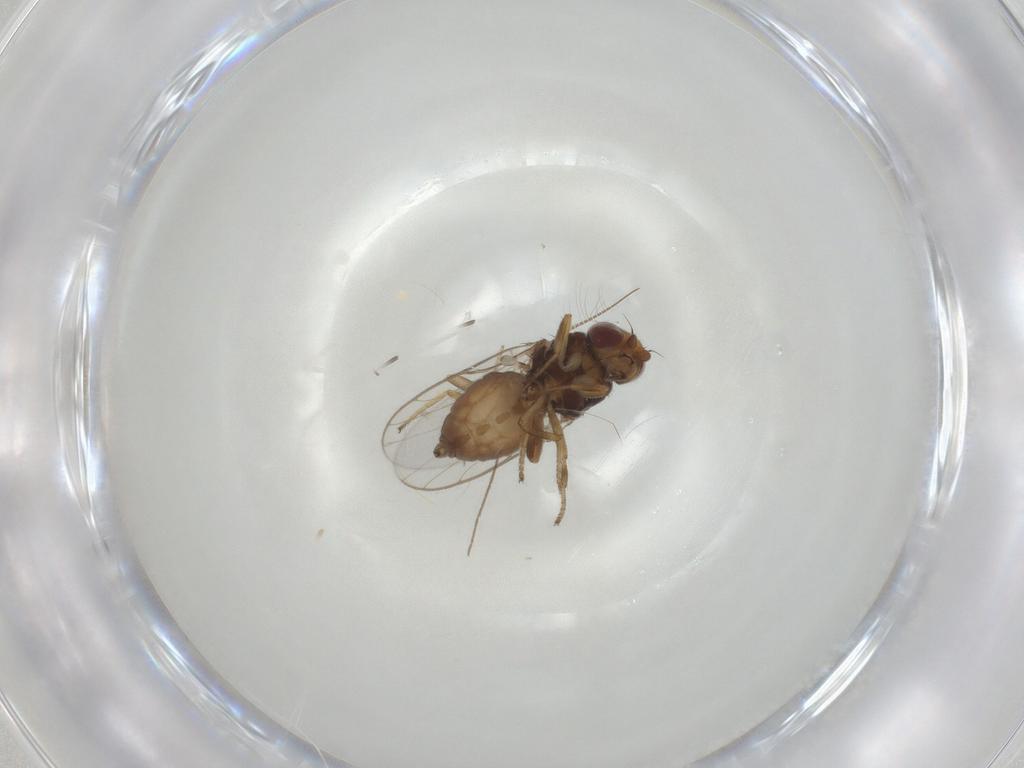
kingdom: Animalia
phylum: Arthropoda
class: Insecta
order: Diptera
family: Chloropidae
